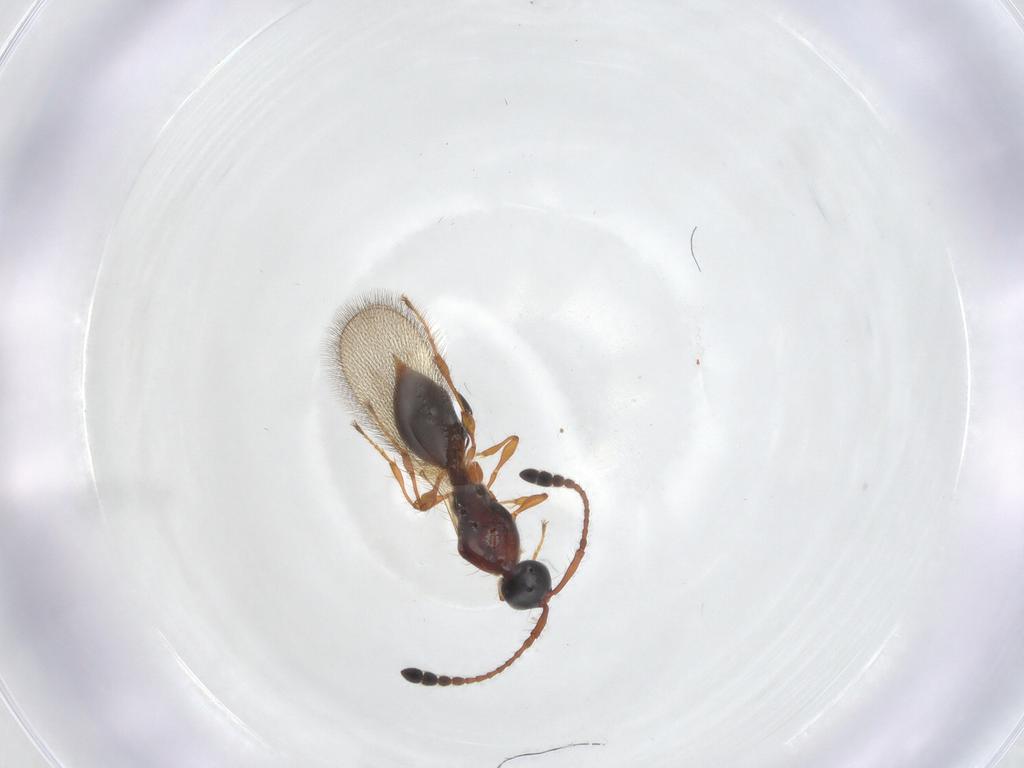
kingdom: Animalia
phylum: Arthropoda
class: Insecta
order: Hymenoptera
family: Diapriidae
